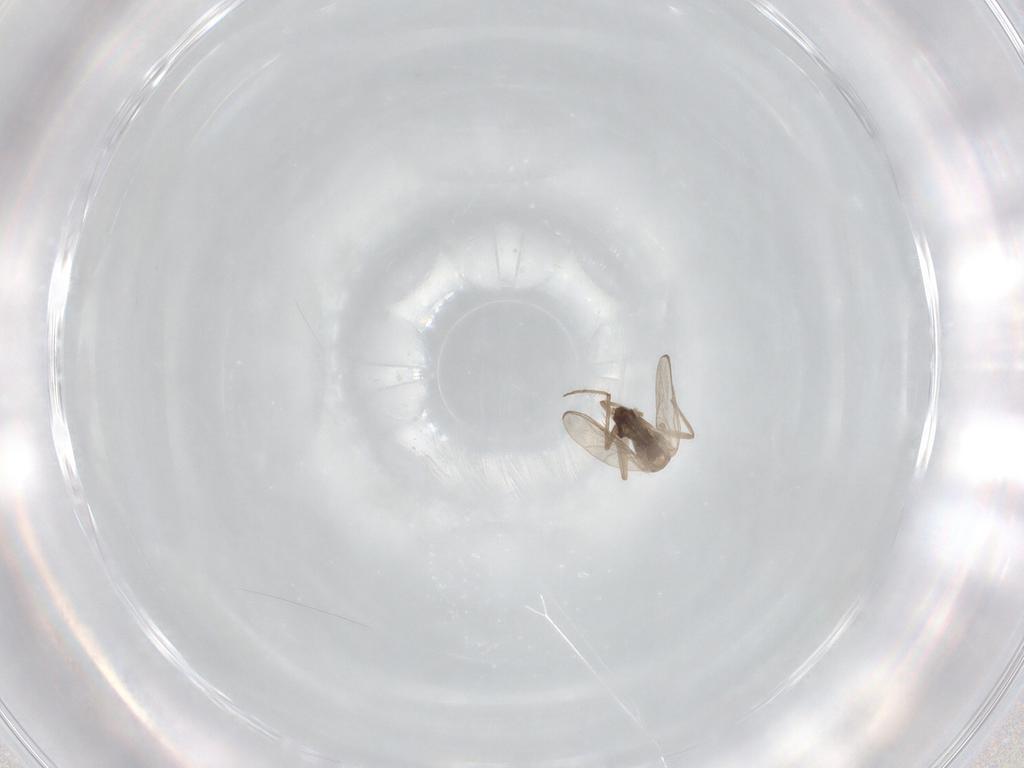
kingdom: Animalia
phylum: Arthropoda
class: Insecta
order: Diptera
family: Chironomidae
